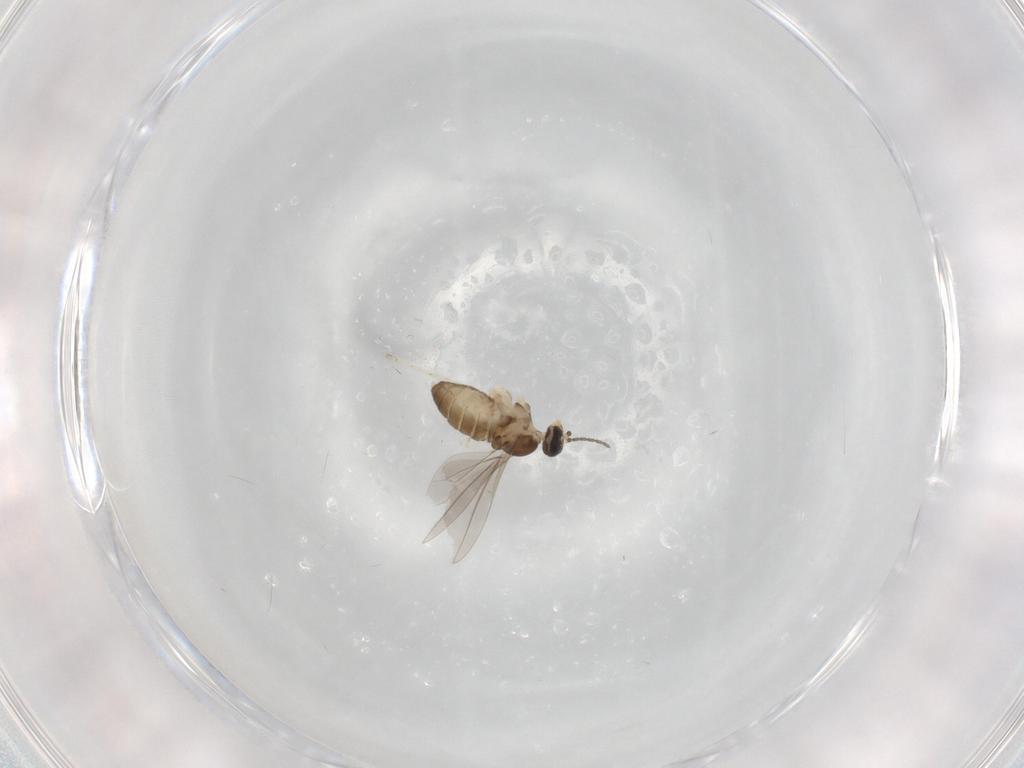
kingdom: Animalia
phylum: Arthropoda
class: Insecta
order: Diptera
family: Cecidomyiidae
